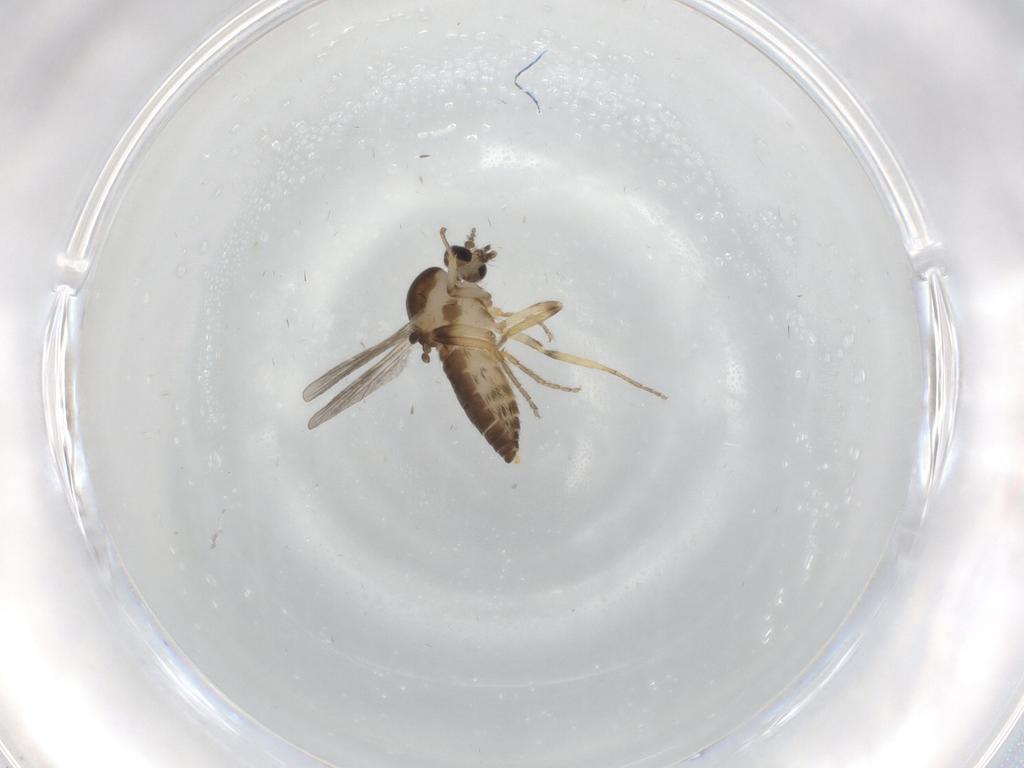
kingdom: Animalia
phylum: Arthropoda
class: Insecta
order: Diptera
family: Ceratopogonidae
